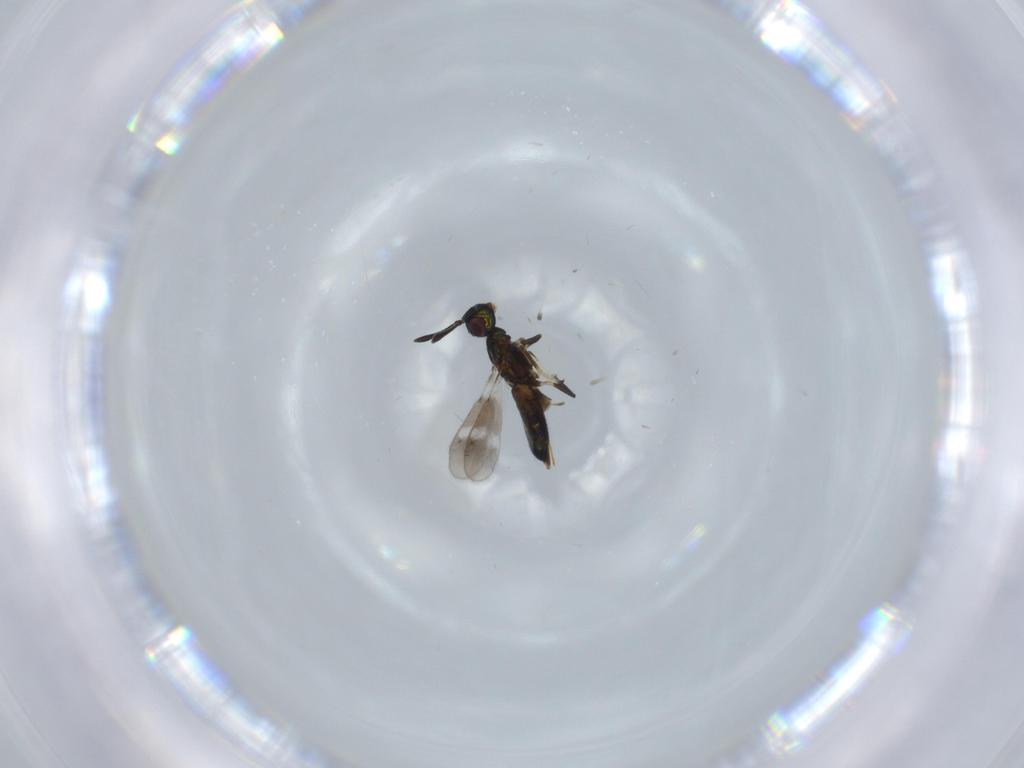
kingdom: Animalia
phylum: Arthropoda
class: Insecta
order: Hymenoptera
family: Eupelmidae
